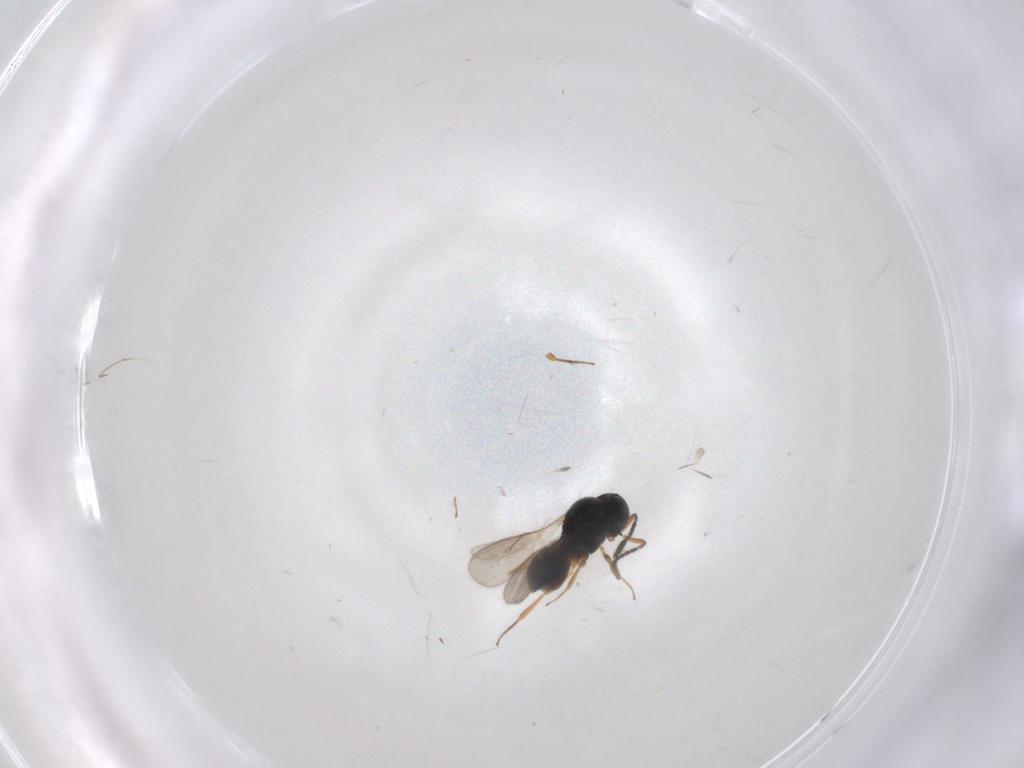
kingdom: Animalia
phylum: Arthropoda
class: Insecta
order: Hymenoptera
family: Scelionidae
